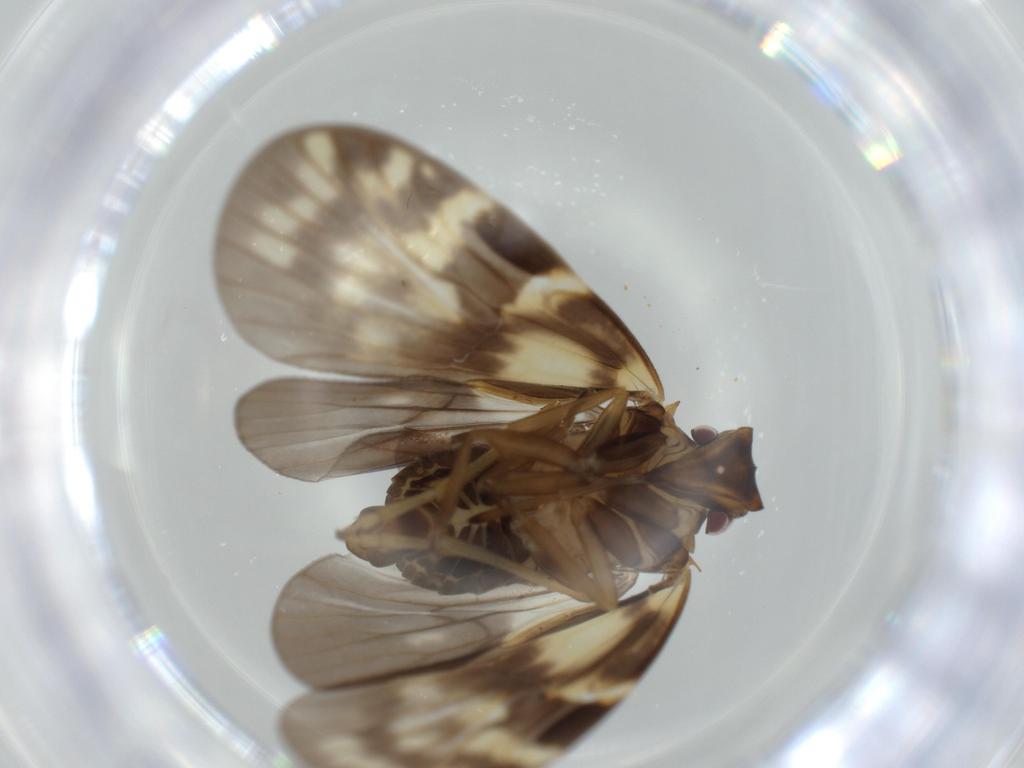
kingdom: Animalia
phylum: Arthropoda
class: Insecta
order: Hemiptera
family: Cixiidae
